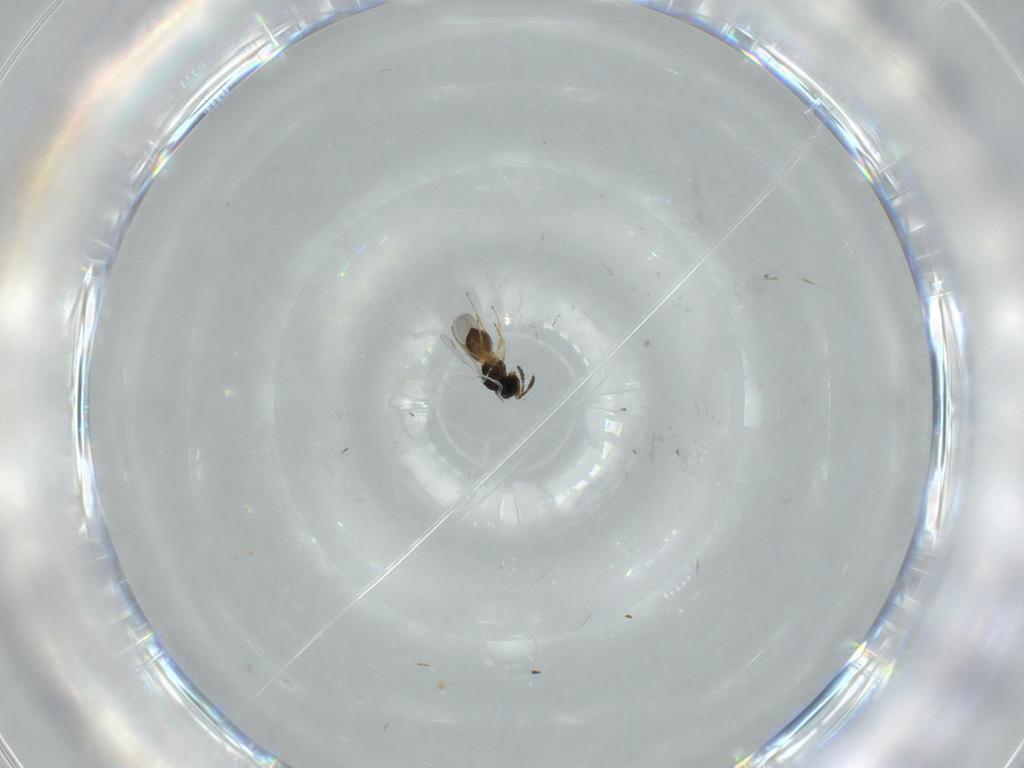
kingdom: Animalia
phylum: Arthropoda
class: Insecta
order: Hymenoptera
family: Scelionidae
